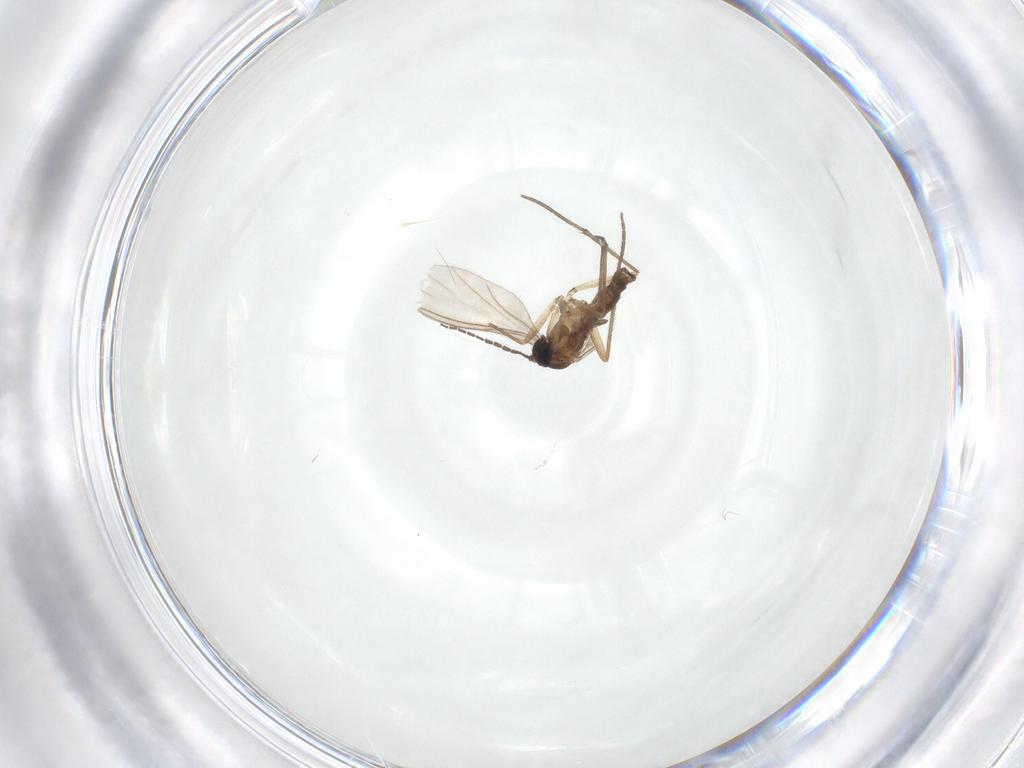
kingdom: Animalia
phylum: Arthropoda
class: Insecta
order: Diptera
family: Sciaridae
